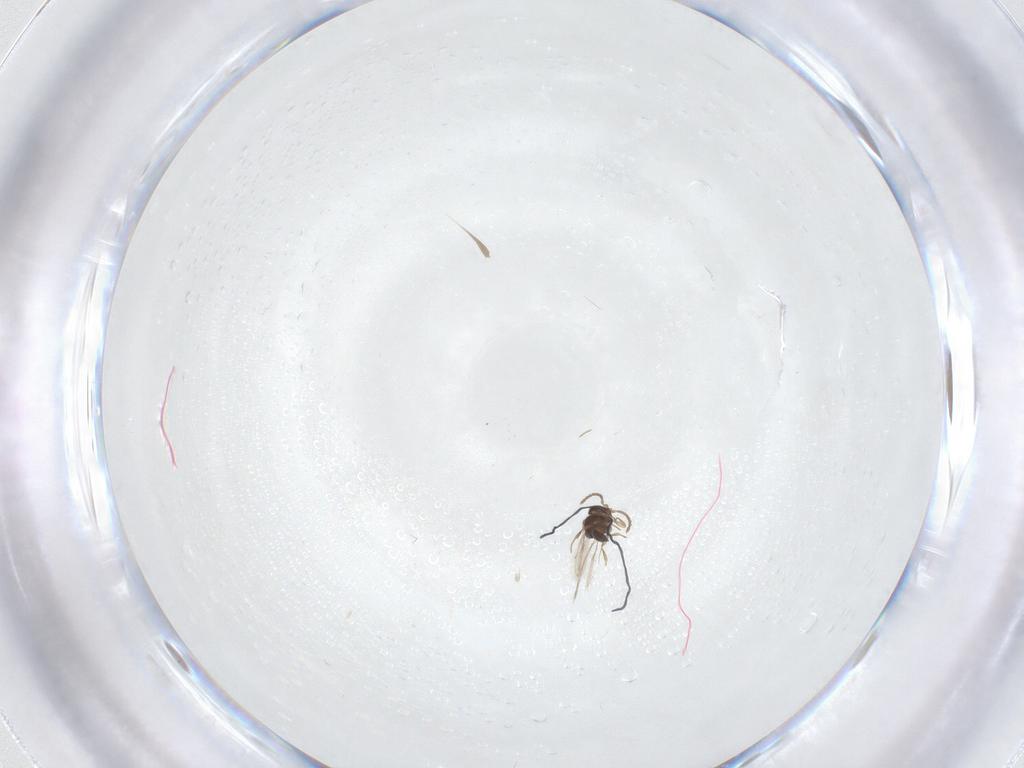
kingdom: Animalia
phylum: Arthropoda
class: Insecta
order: Hymenoptera
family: Scelionidae
